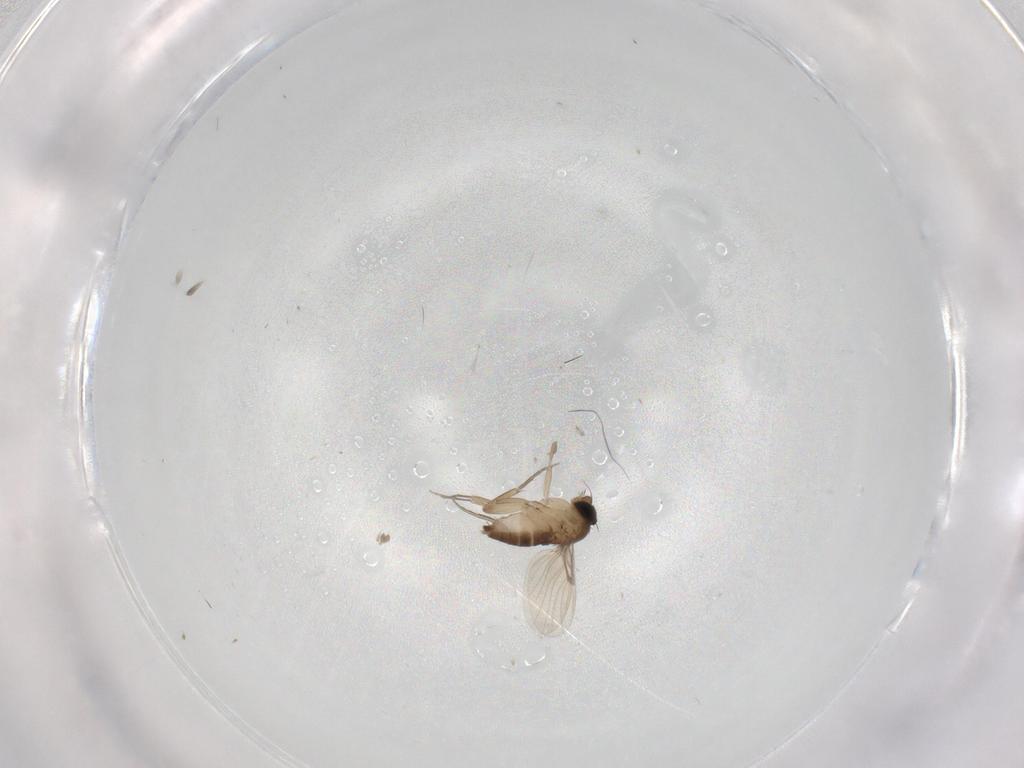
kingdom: Animalia
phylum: Arthropoda
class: Insecta
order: Diptera
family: Phoridae
